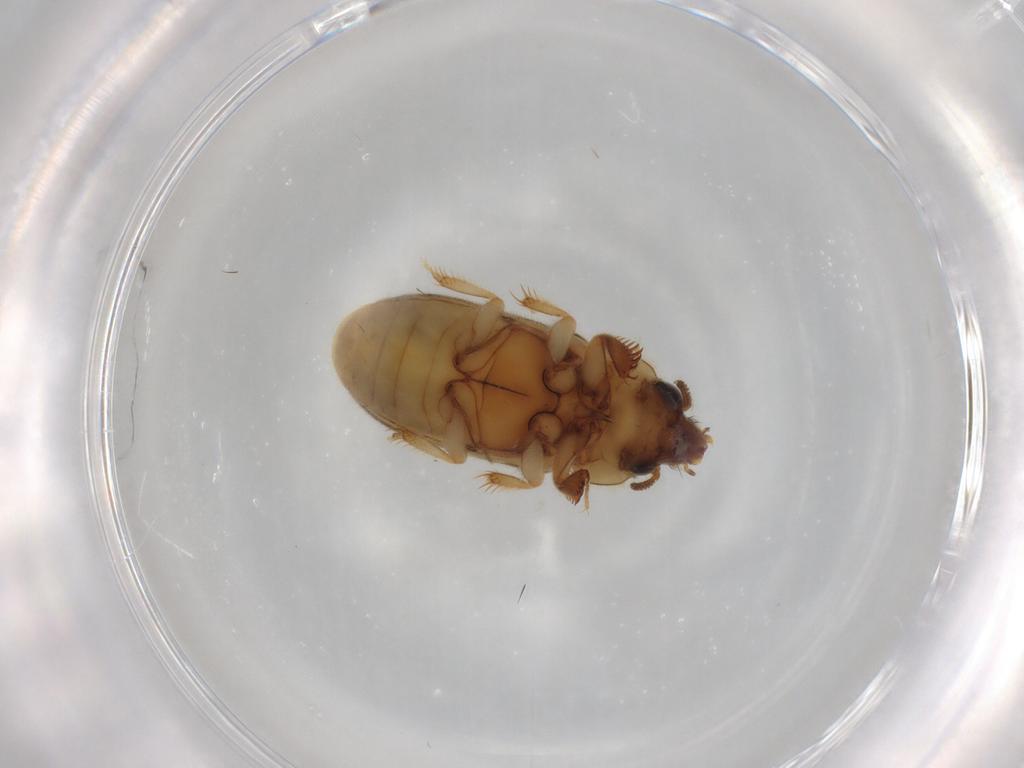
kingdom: Animalia
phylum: Arthropoda
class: Insecta
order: Coleoptera
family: Heteroceridae
